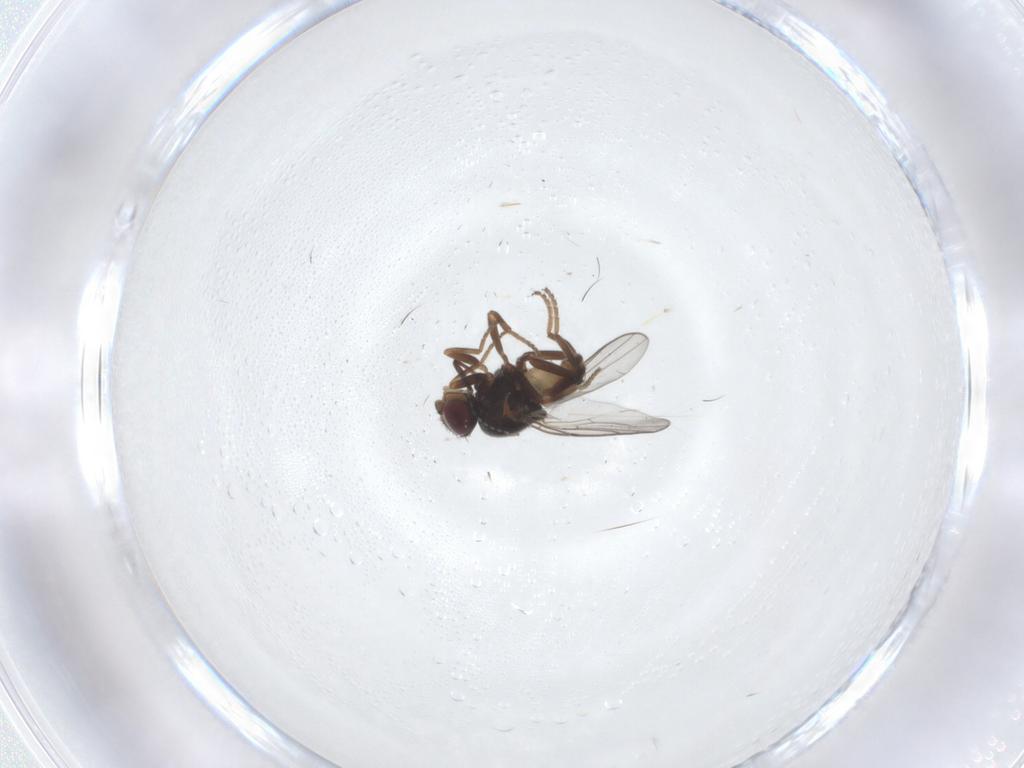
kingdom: Animalia
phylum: Arthropoda
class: Insecta
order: Diptera
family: Chloropidae
